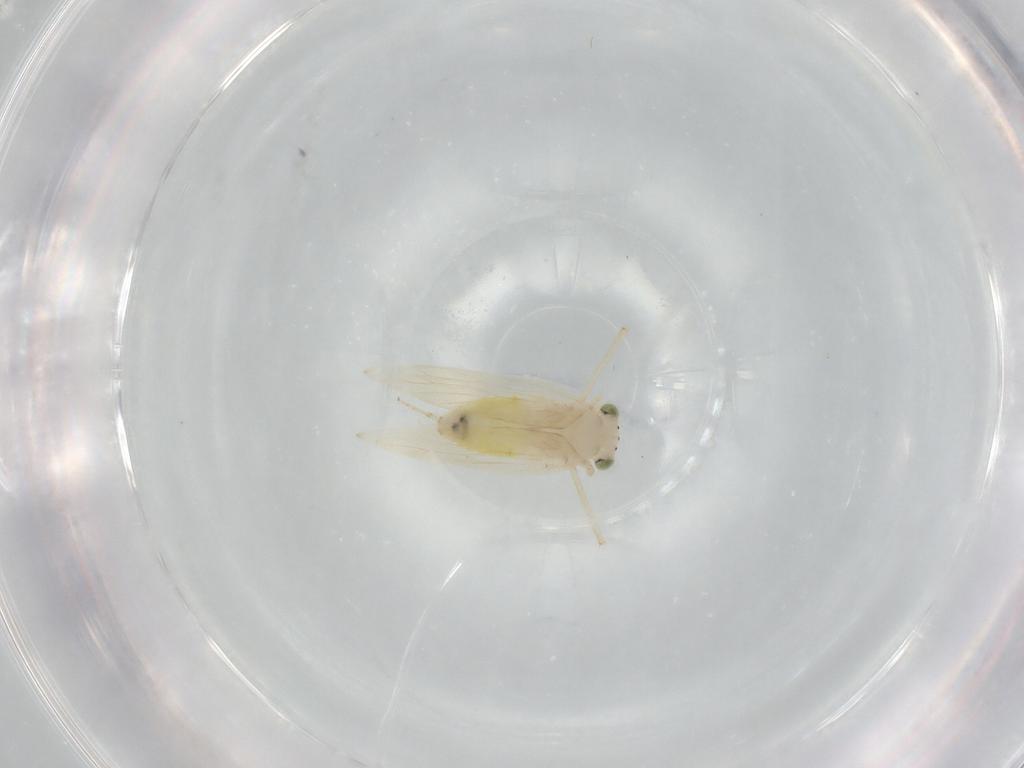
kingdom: Animalia
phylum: Arthropoda
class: Insecta
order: Psocodea
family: Lepidopsocidae
